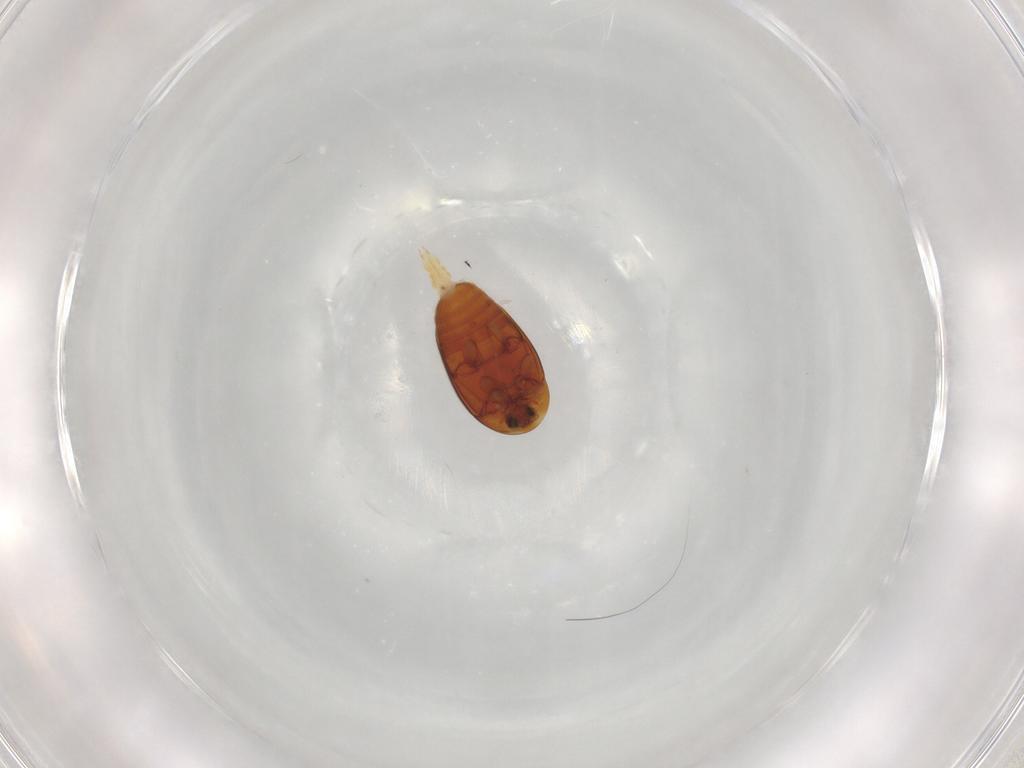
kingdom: Animalia
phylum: Arthropoda
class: Insecta
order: Coleoptera
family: Corylophidae
